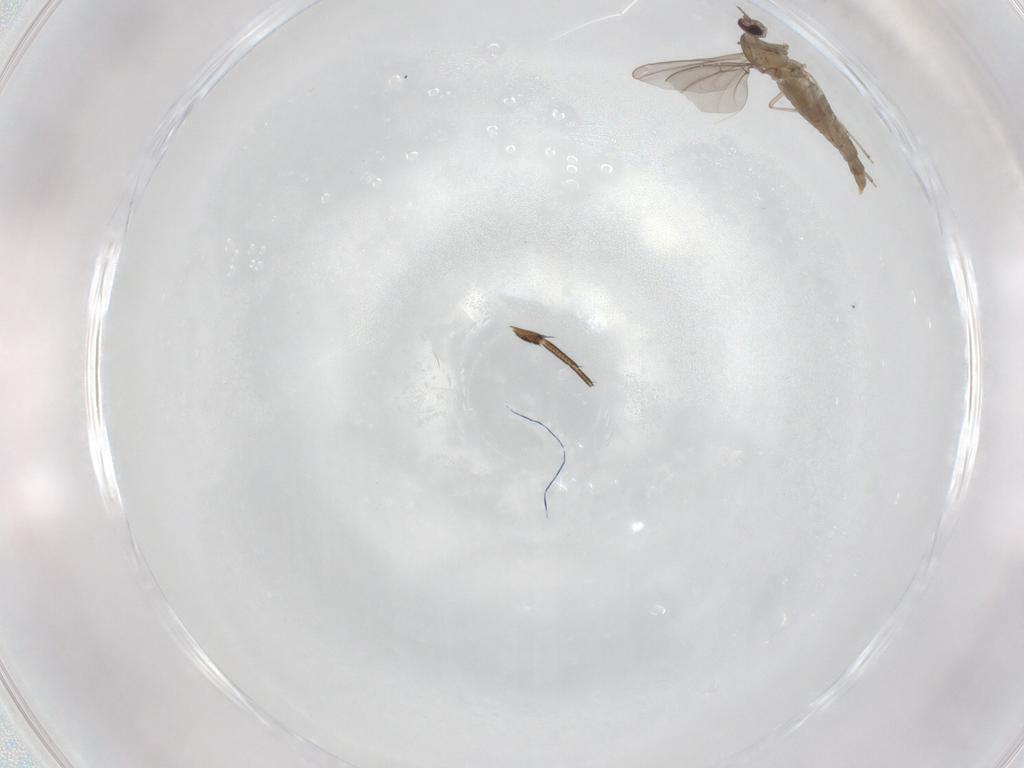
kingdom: Animalia
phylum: Arthropoda
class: Insecta
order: Diptera
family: Cecidomyiidae
